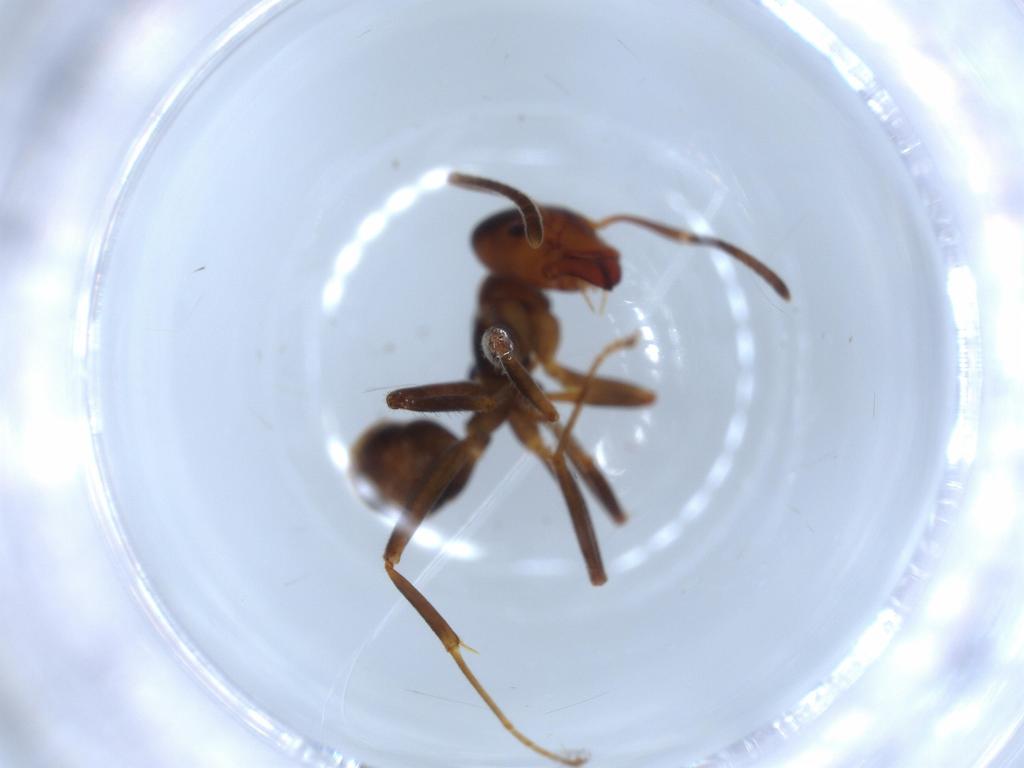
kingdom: Animalia
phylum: Arthropoda
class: Insecta
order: Hymenoptera
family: Formicidae
